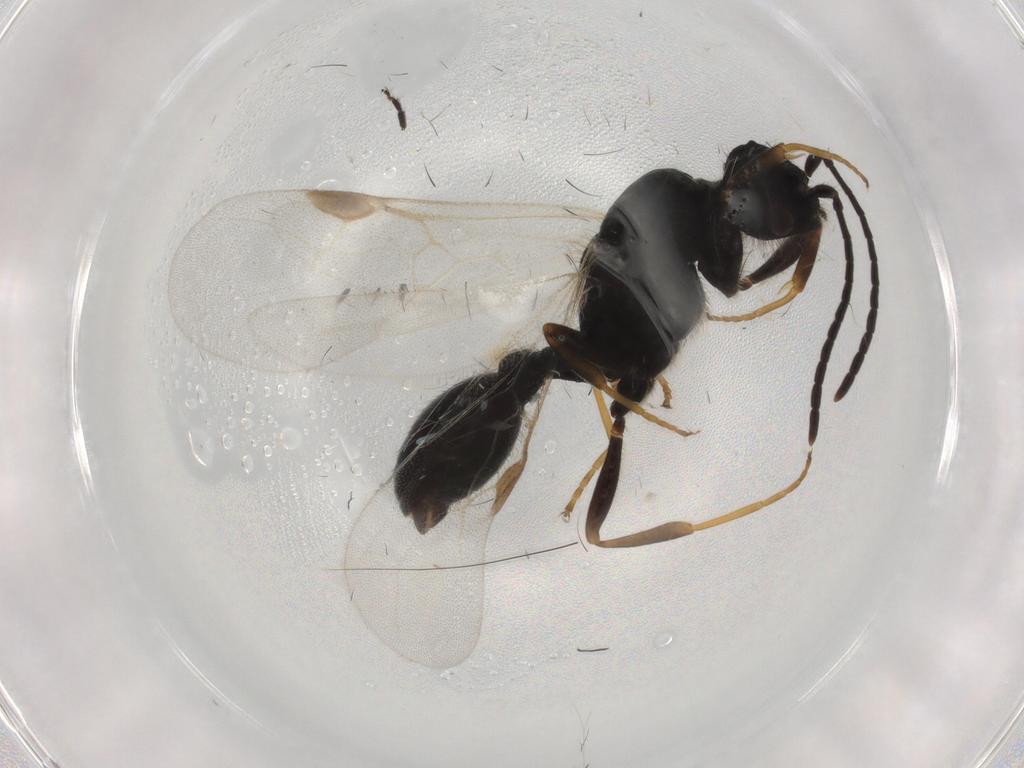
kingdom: Animalia
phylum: Arthropoda
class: Insecta
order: Hymenoptera
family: Formicidae
